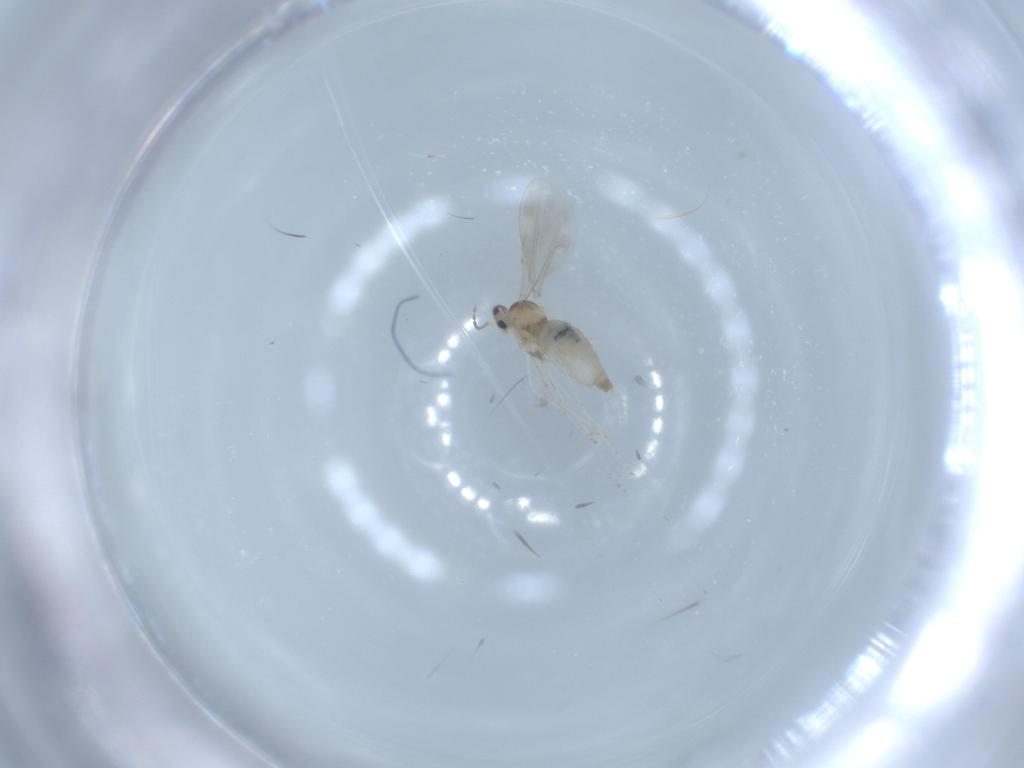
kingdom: Animalia
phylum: Arthropoda
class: Insecta
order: Diptera
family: Cecidomyiidae
